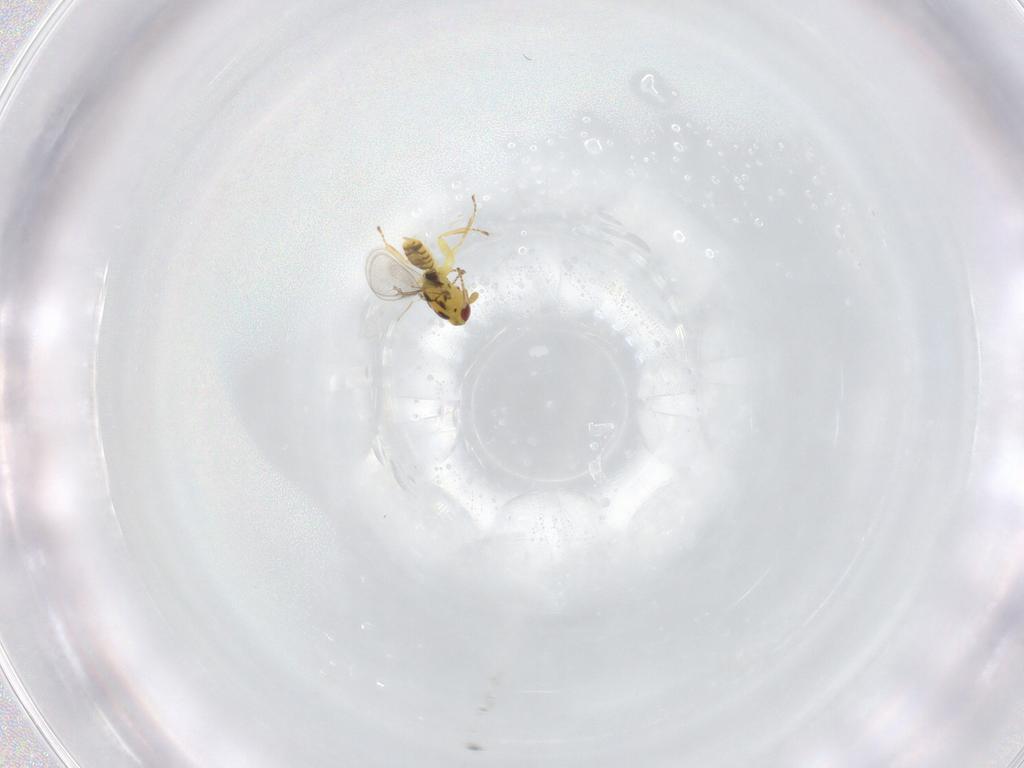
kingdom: Animalia
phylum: Arthropoda
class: Insecta
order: Hymenoptera
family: Eulophidae
